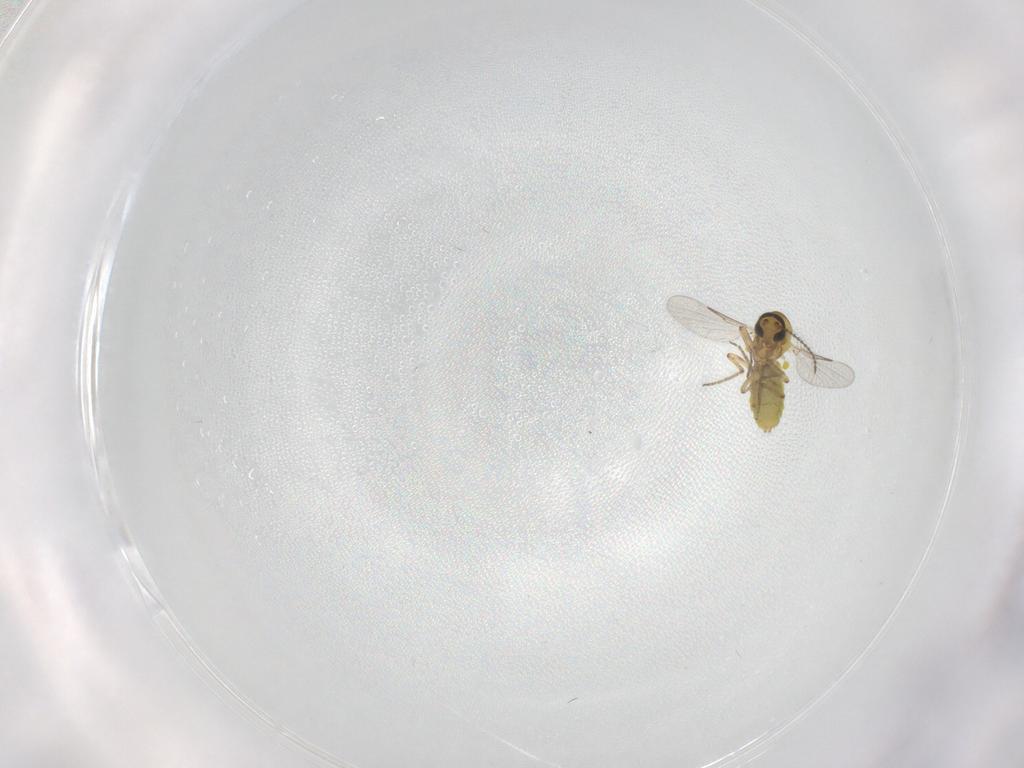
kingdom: Animalia
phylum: Arthropoda
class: Insecta
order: Diptera
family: Ceratopogonidae
